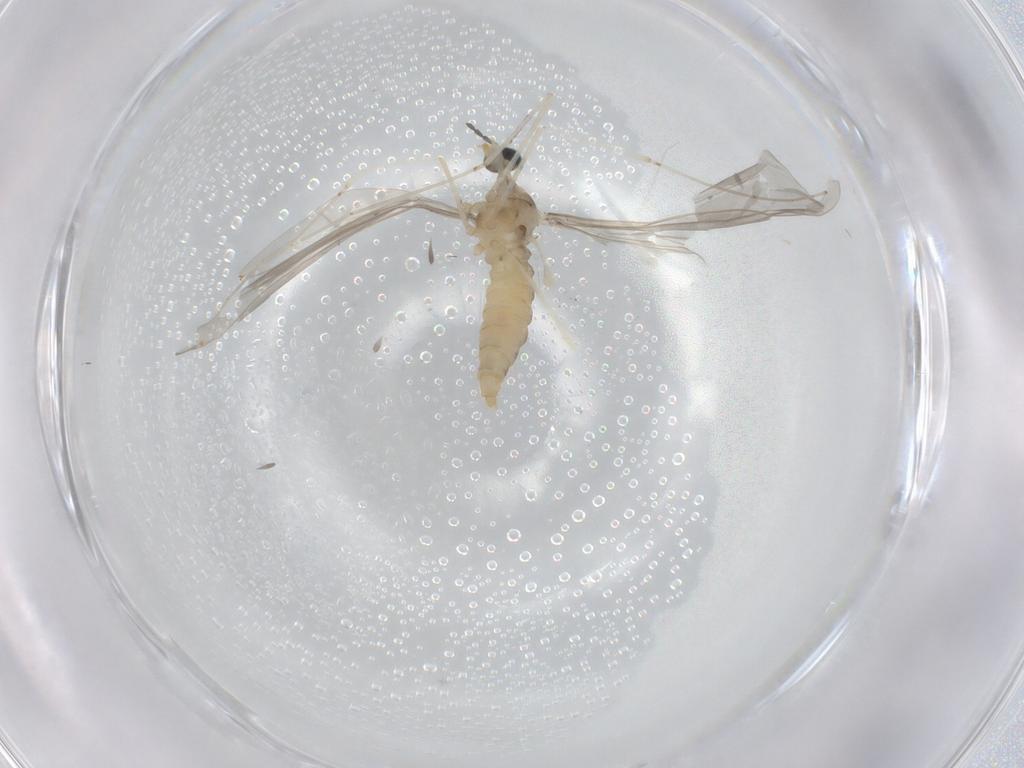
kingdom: Animalia
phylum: Arthropoda
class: Insecta
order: Diptera
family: Cecidomyiidae
